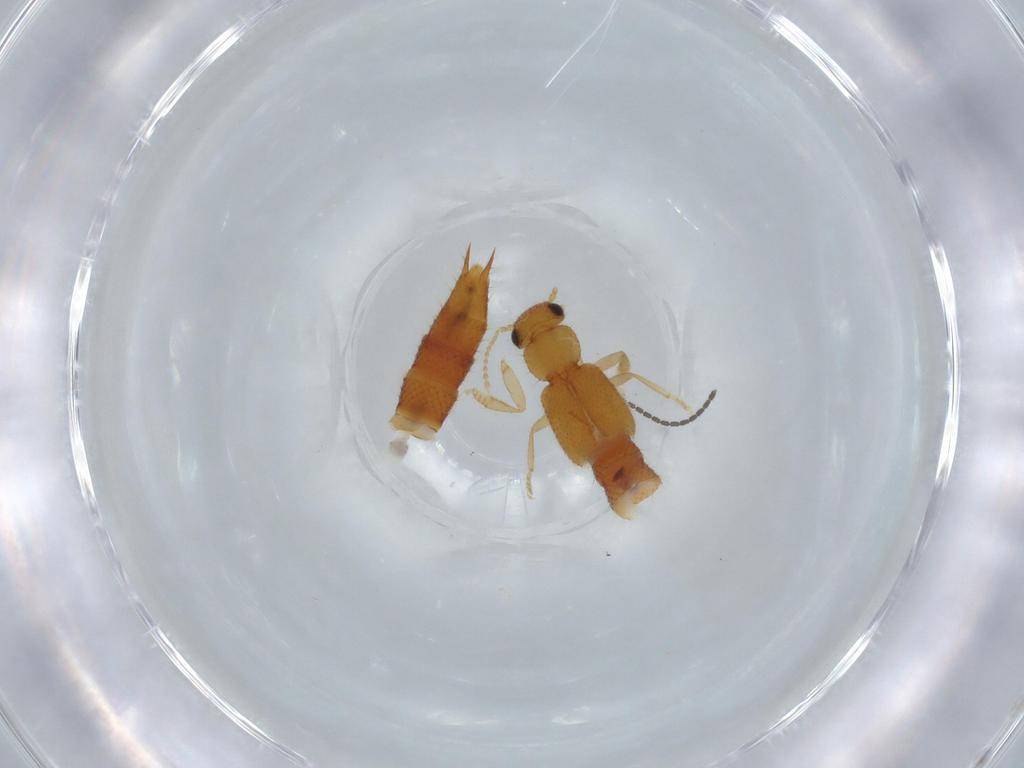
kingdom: Animalia
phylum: Arthropoda
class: Insecta
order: Coleoptera
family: Staphylinidae
